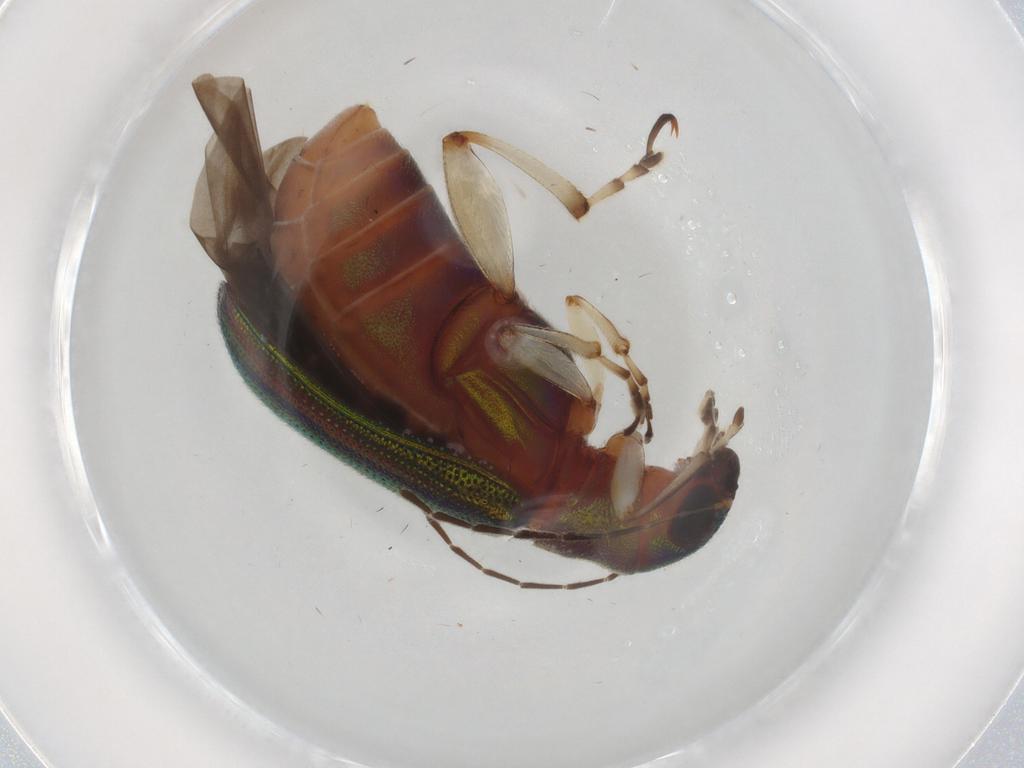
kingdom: Animalia
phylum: Arthropoda
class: Insecta
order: Coleoptera
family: Chrysomelidae
